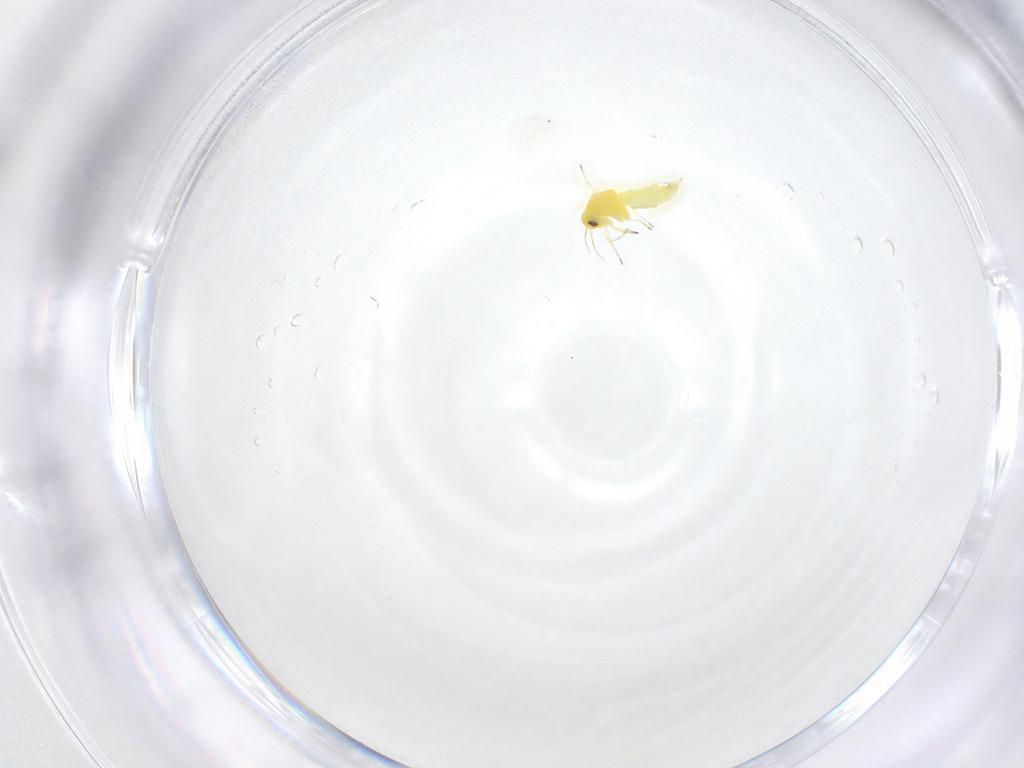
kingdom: Animalia
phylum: Arthropoda
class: Insecta
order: Hemiptera
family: Aleyrodidae
